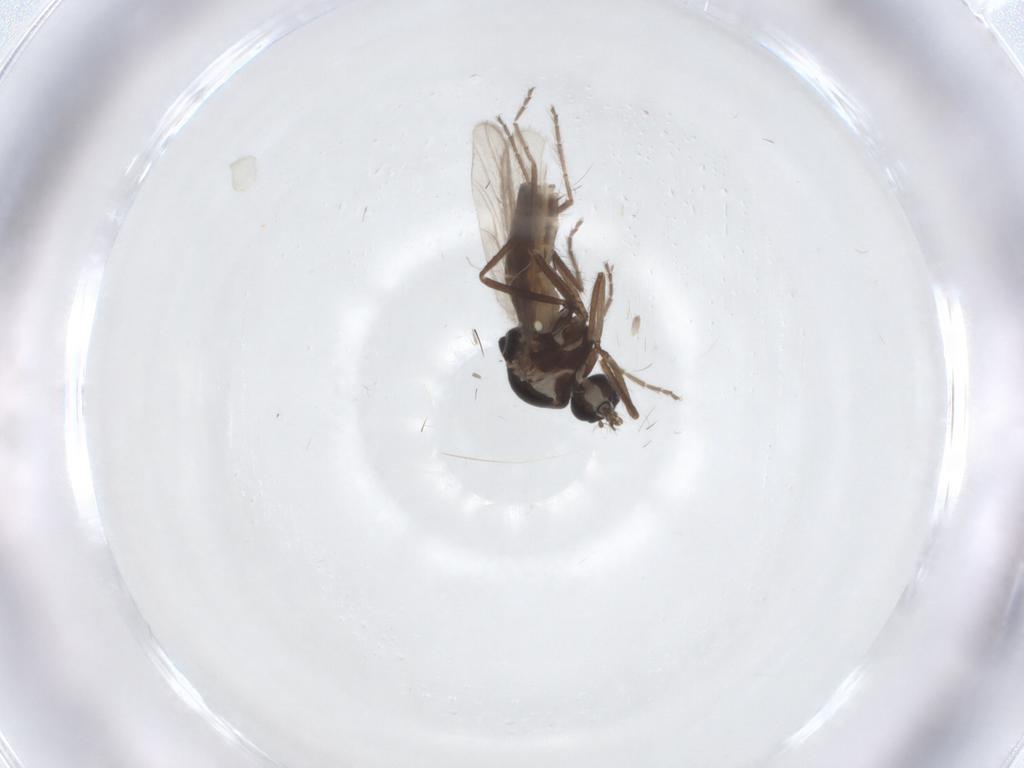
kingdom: Animalia
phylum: Arthropoda
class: Insecta
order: Diptera
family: Ceratopogonidae
